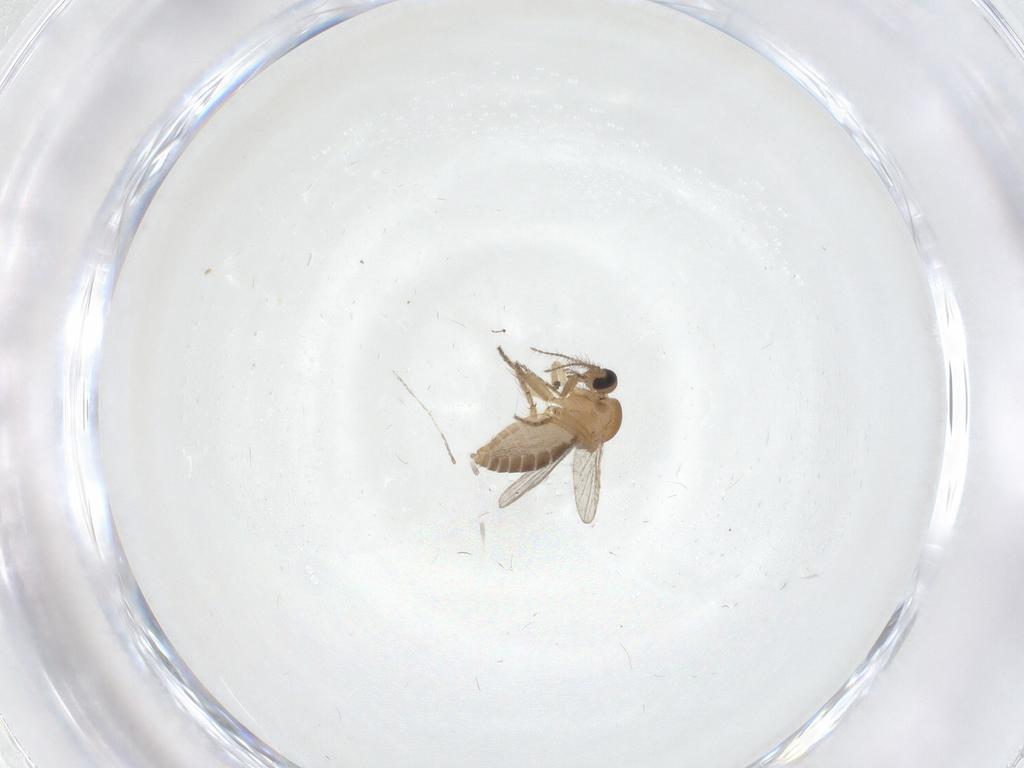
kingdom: Animalia
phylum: Arthropoda
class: Insecta
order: Diptera
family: Ceratopogonidae
